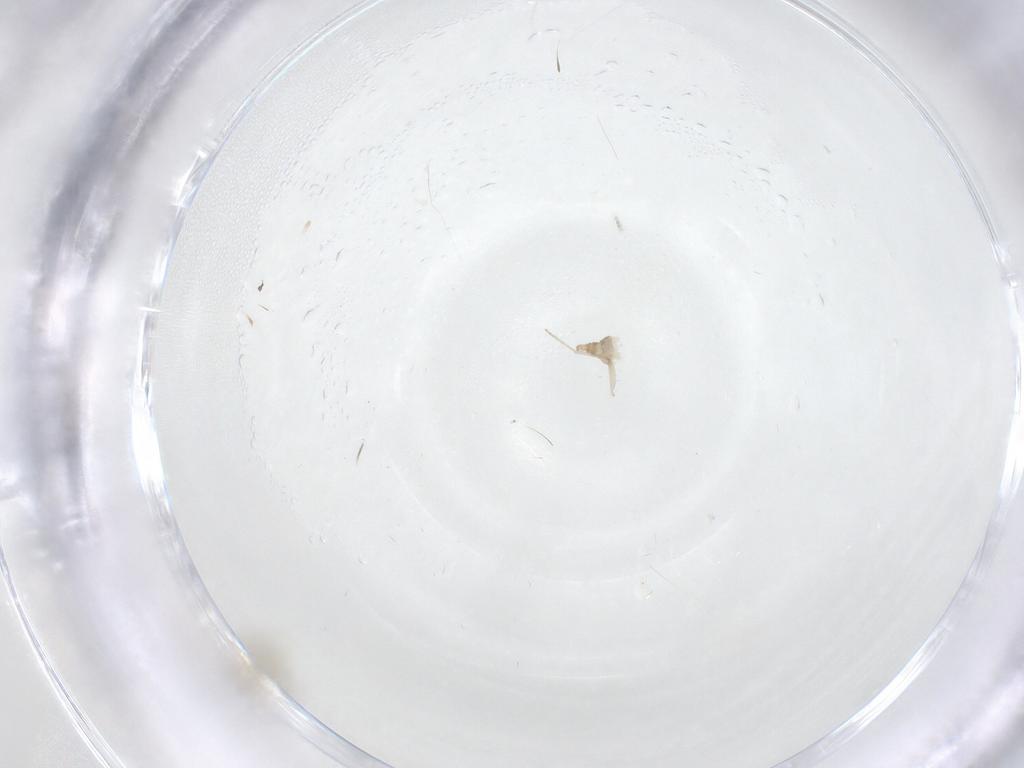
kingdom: Animalia
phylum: Arthropoda
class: Insecta
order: Diptera
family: Cecidomyiidae
